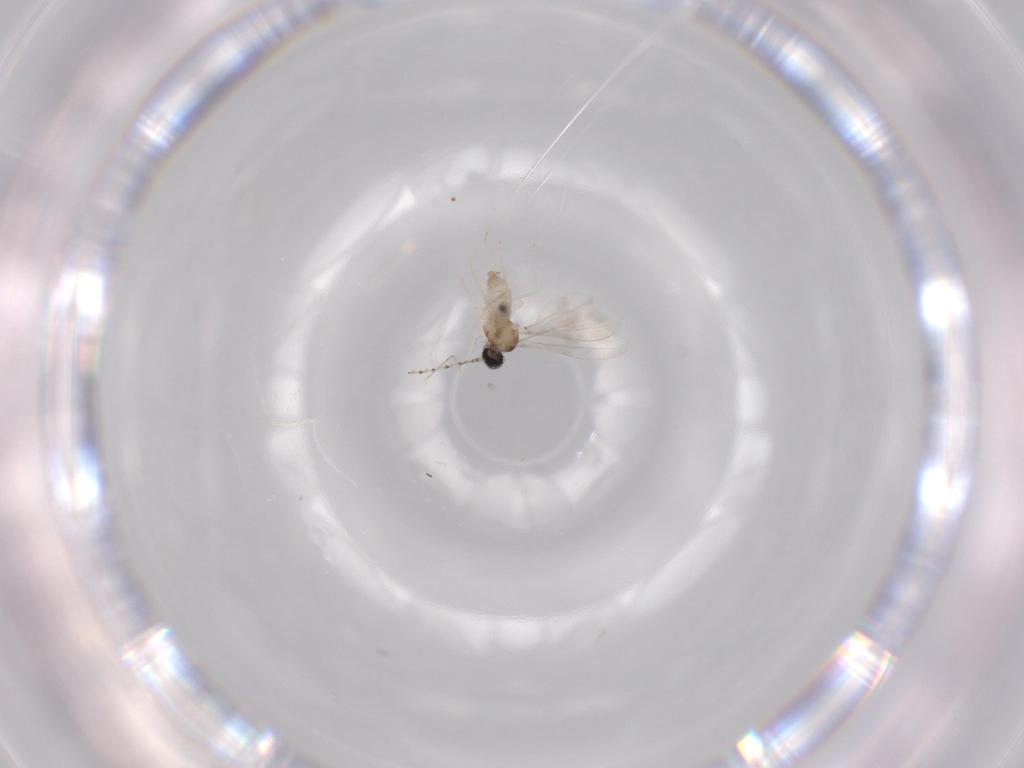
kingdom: Animalia
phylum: Arthropoda
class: Insecta
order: Diptera
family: Cecidomyiidae
